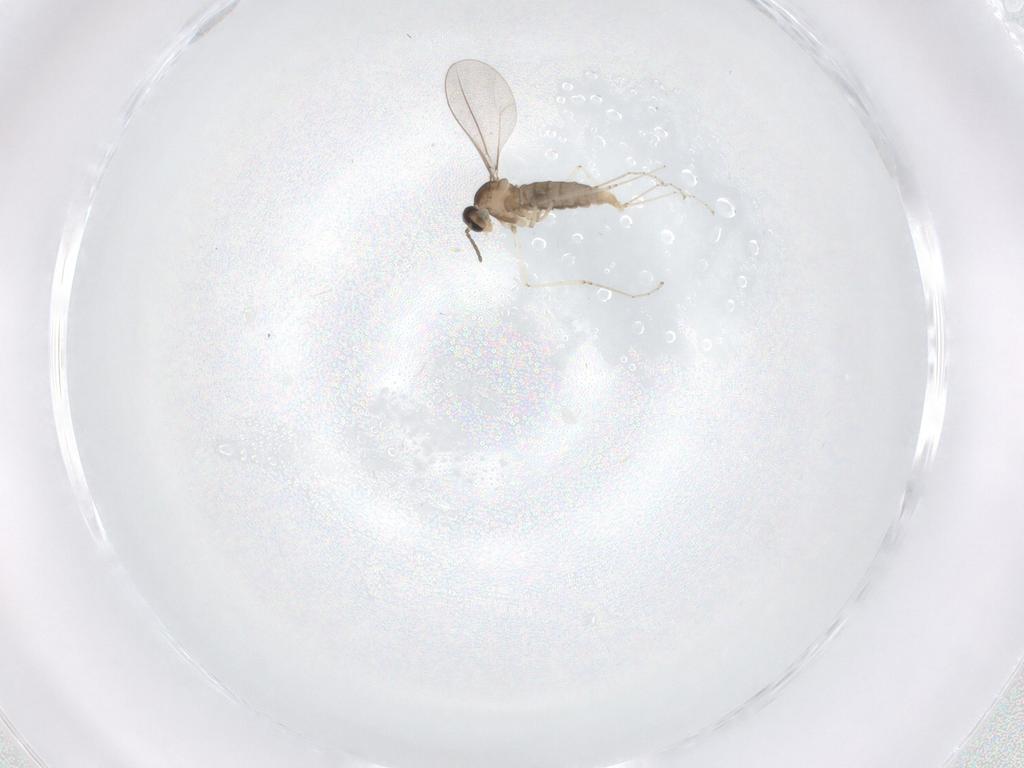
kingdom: Animalia
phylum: Arthropoda
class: Insecta
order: Diptera
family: Cecidomyiidae
